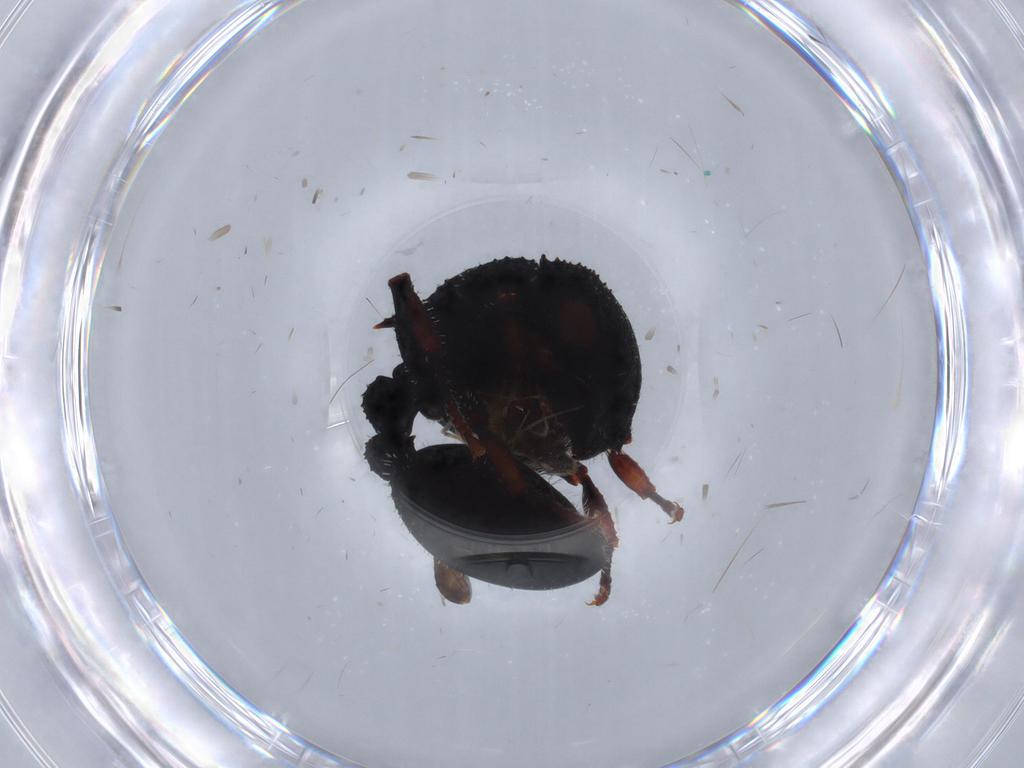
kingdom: Animalia
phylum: Arthropoda
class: Insecta
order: Hymenoptera
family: Eulophidae
